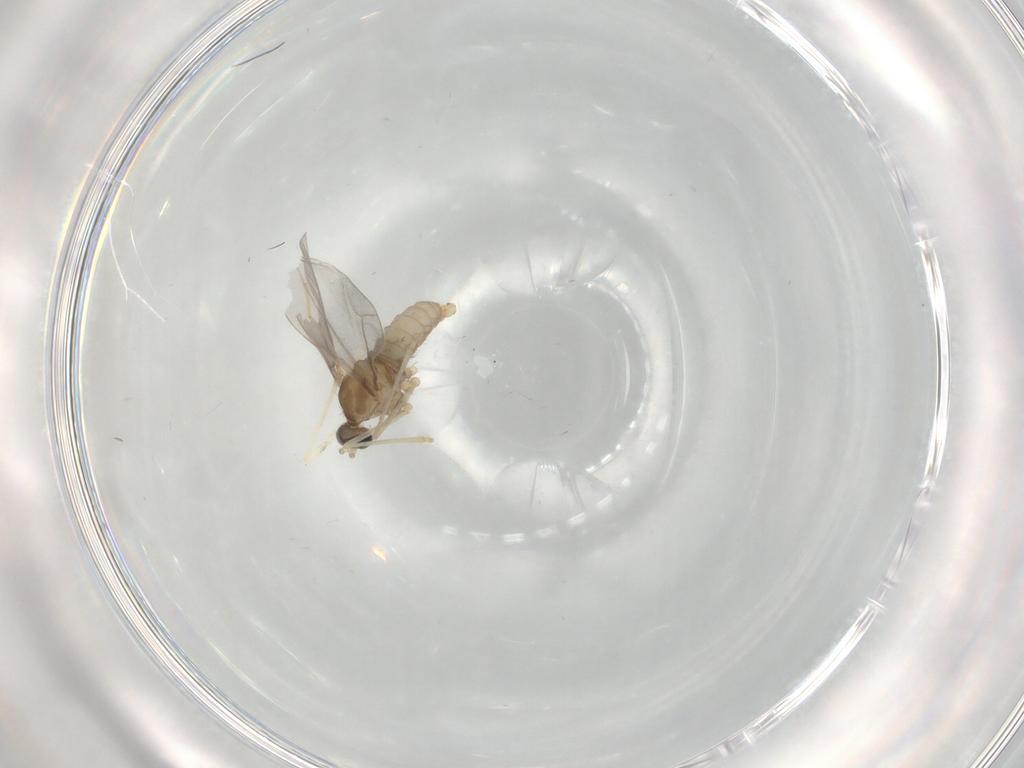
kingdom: Animalia
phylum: Arthropoda
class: Insecta
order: Diptera
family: Cecidomyiidae
